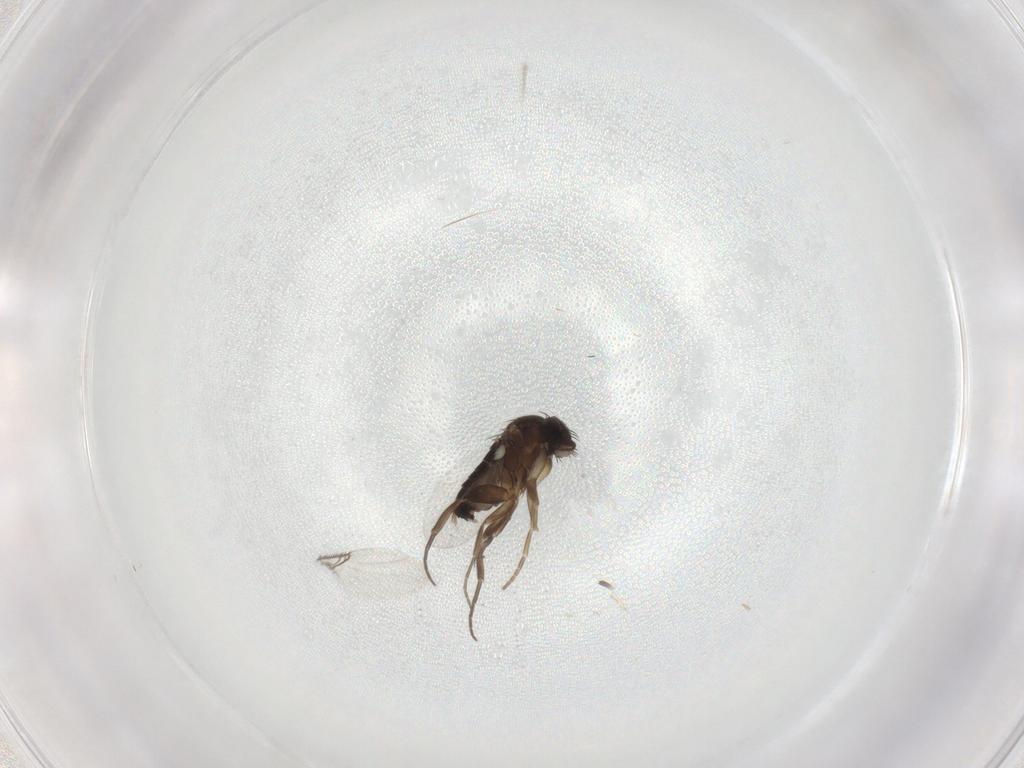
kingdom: Animalia
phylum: Arthropoda
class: Insecta
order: Diptera
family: Phoridae
